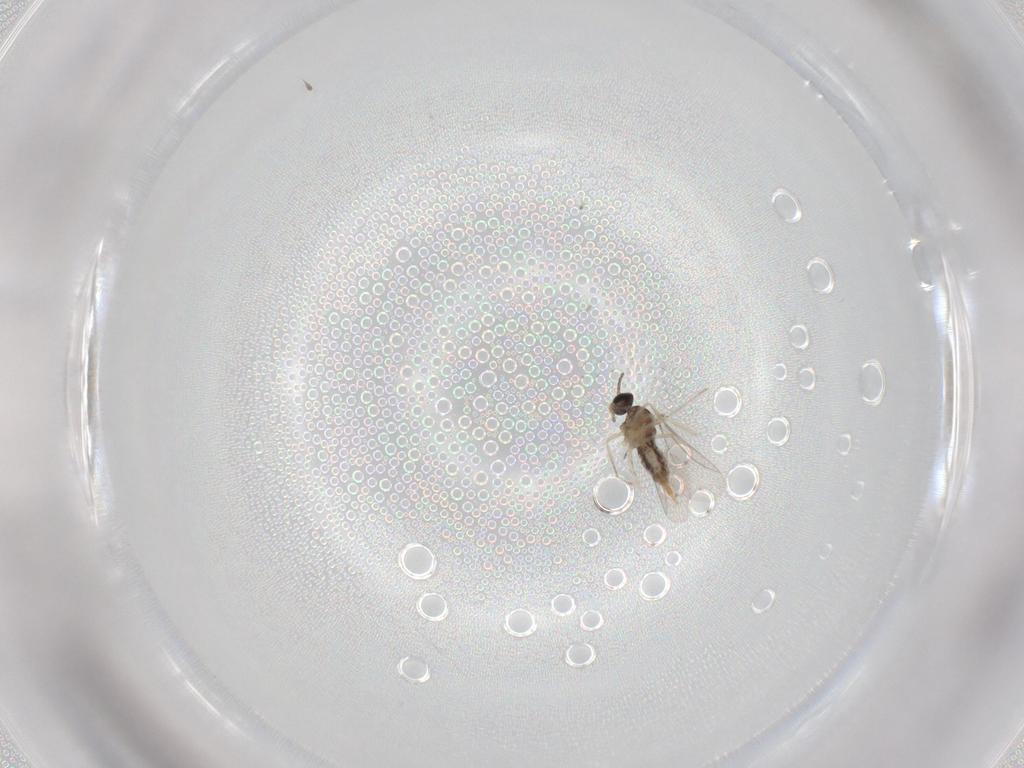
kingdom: Animalia
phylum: Arthropoda
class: Insecta
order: Diptera
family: Cecidomyiidae
